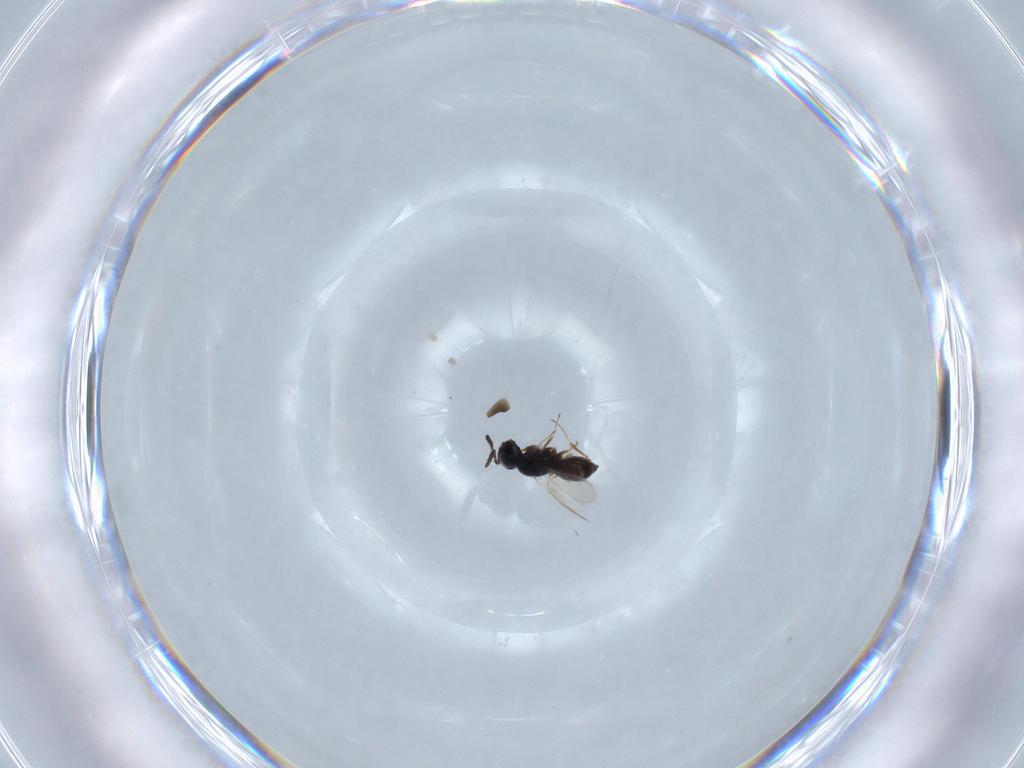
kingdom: Animalia
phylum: Arthropoda
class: Insecta
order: Hymenoptera
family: Scelionidae
